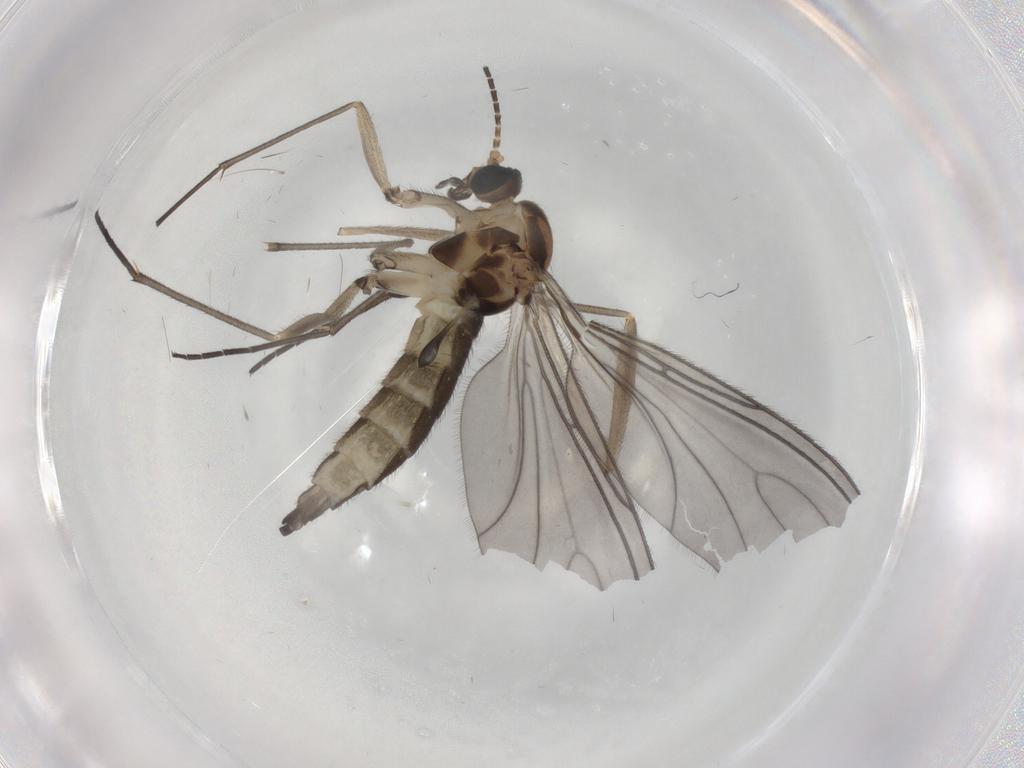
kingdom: Animalia
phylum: Arthropoda
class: Insecta
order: Diptera
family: Sciaridae
